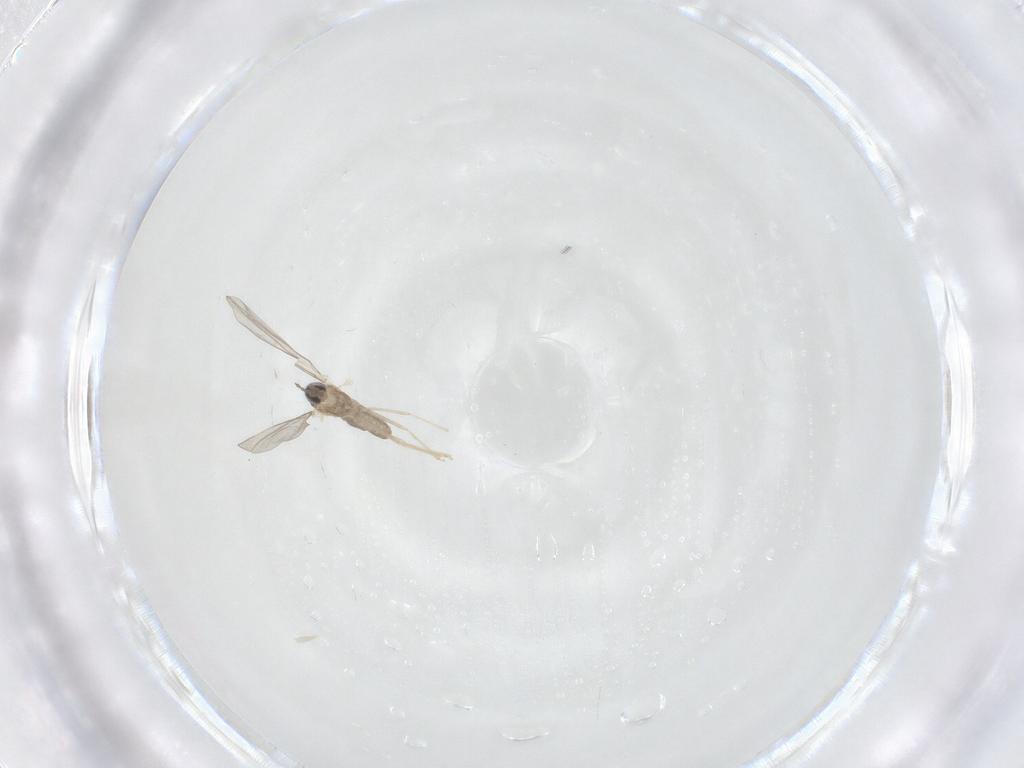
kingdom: Animalia
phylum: Arthropoda
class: Insecta
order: Diptera
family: Cecidomyiidae
